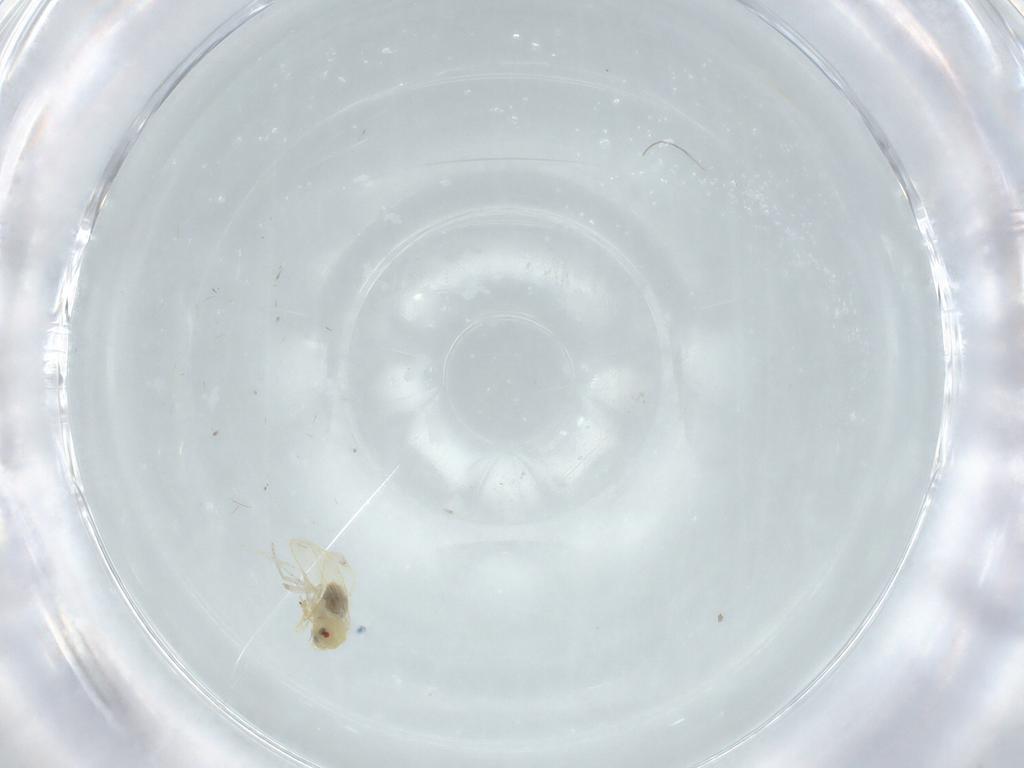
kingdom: Animalia
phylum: Arthropoda
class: Insecta
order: Hemiptera
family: Aleyrodidae
